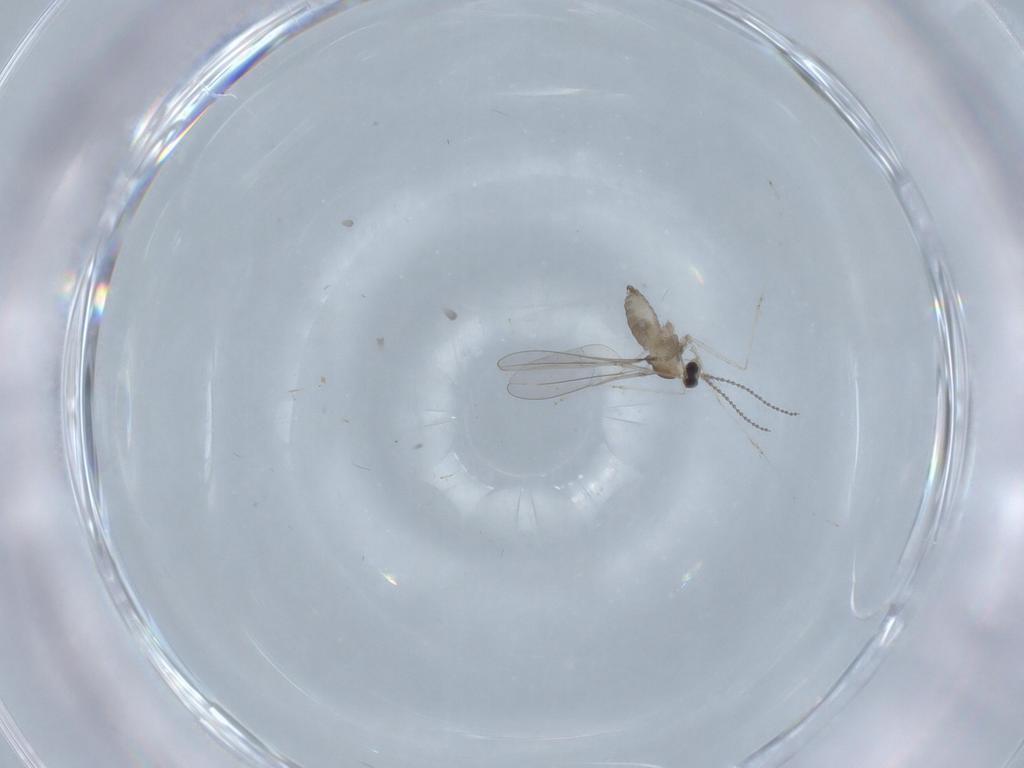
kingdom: Animalia
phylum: Arthropoda
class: Insecta
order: Diptera
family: Cecidomyiidae
